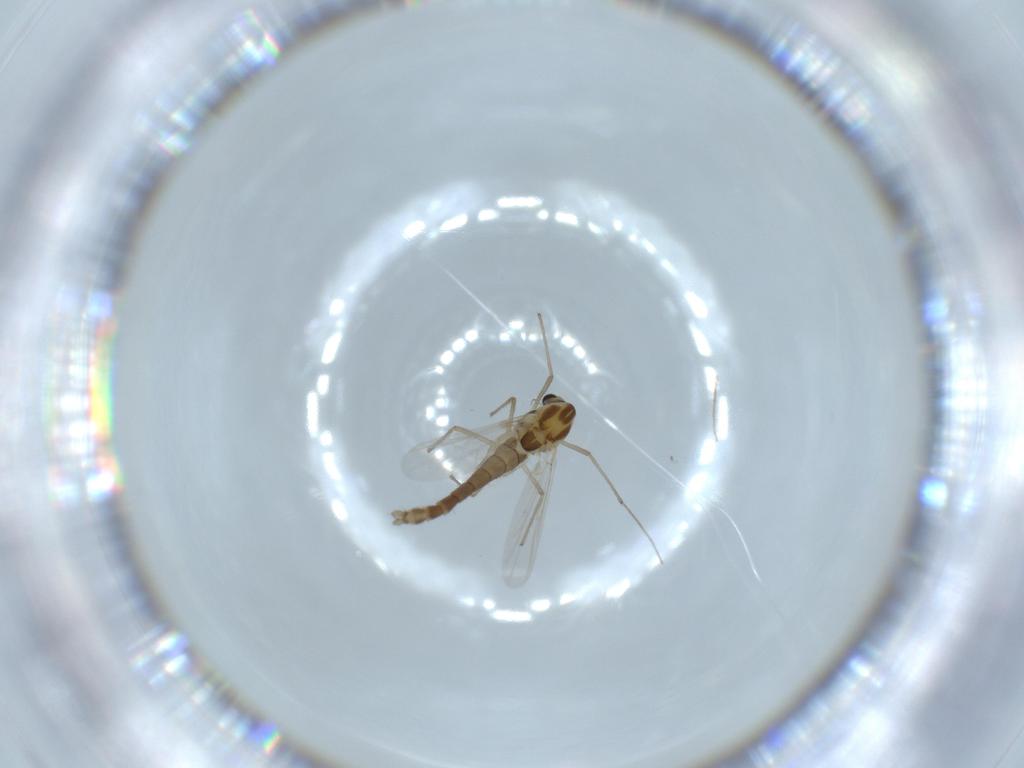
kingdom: Animalia
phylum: Arthropoda
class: Insecta
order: Diptera
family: Chironomidae
